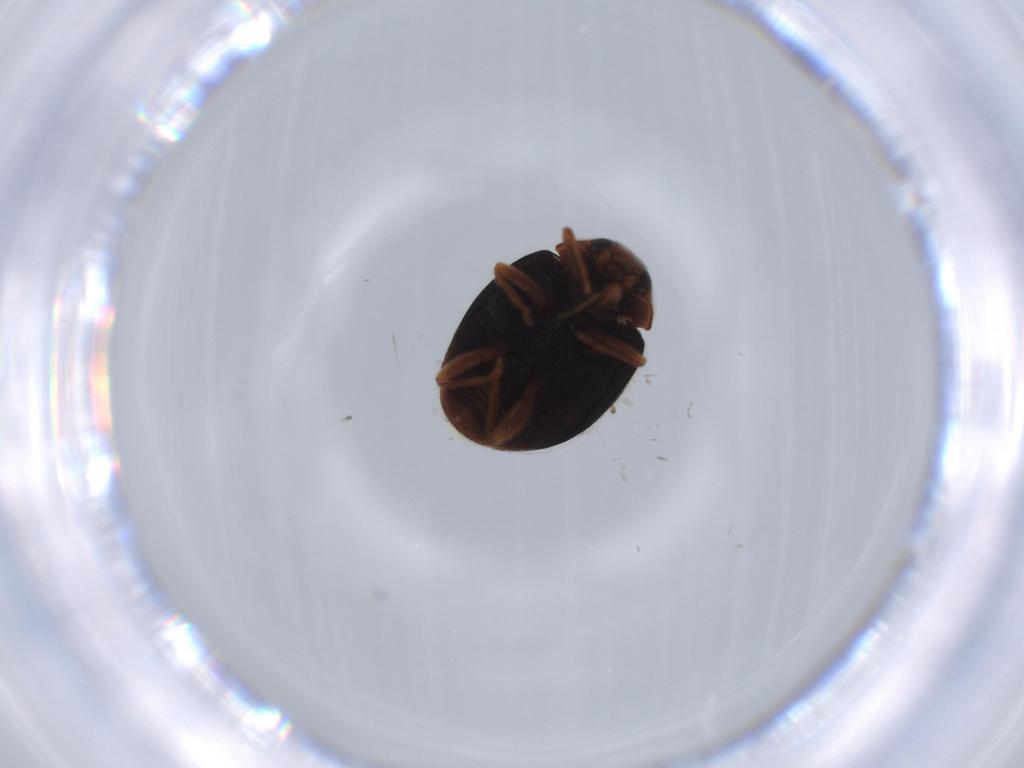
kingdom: Animalia
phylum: Arthropoda
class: Insecta
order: Coleoptera
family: Coccinellidae
